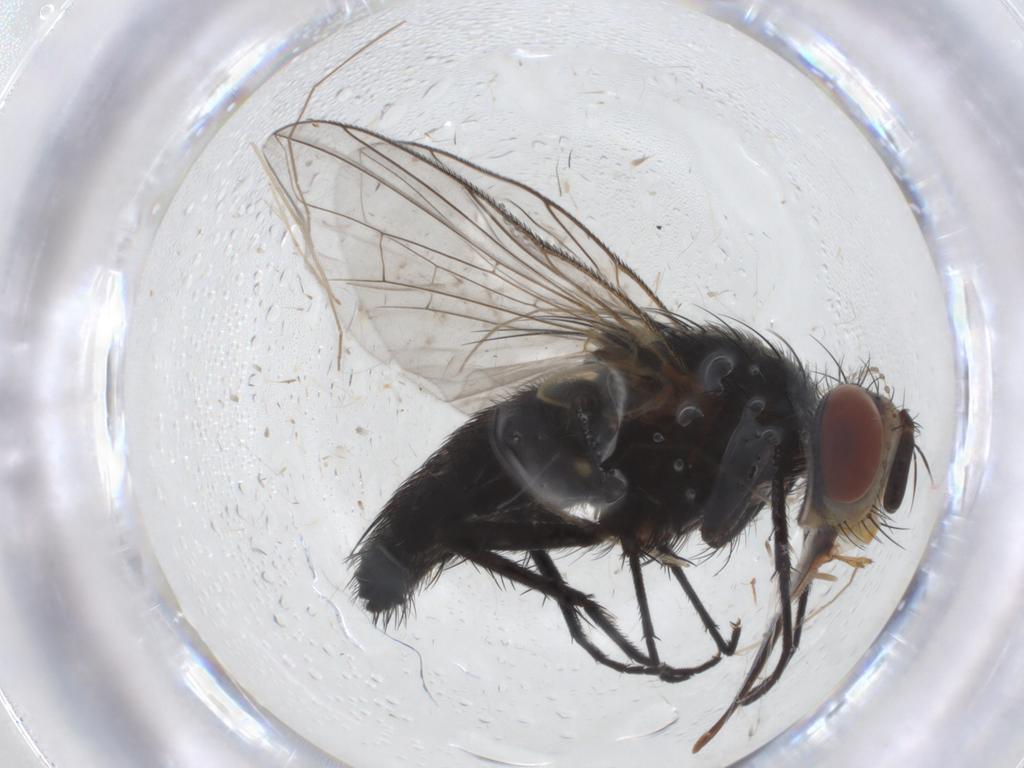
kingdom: Animalia
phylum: Arthropoda
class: Insecta
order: Diptera
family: Tachinidae
